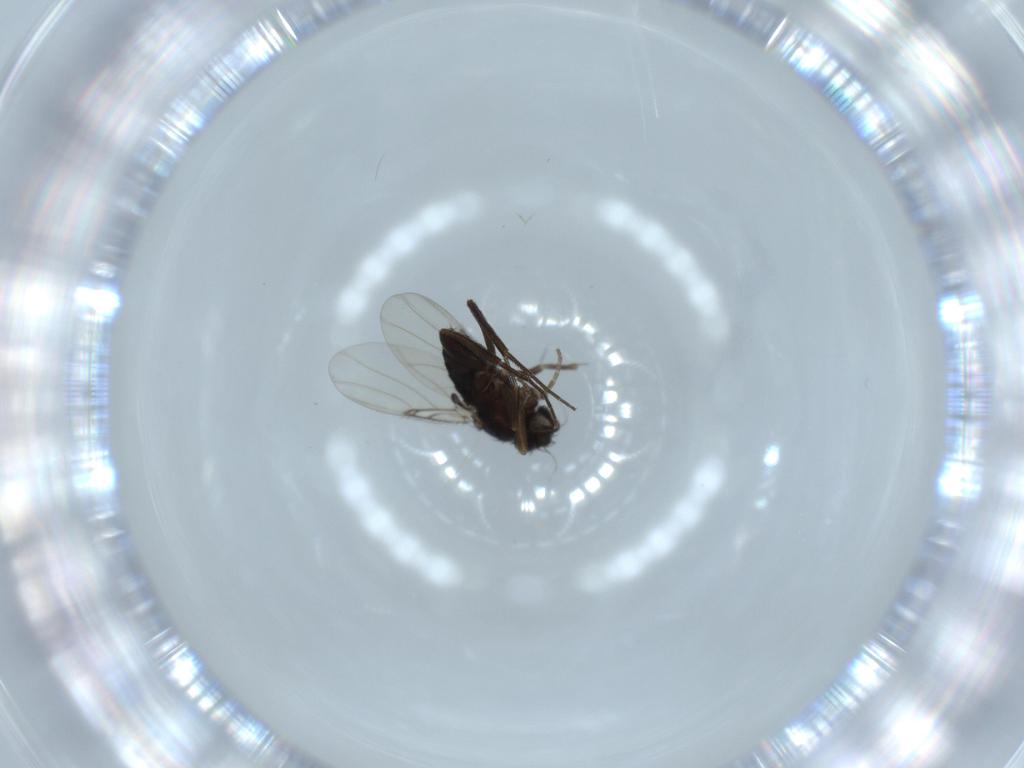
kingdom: Animalia
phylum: Arthropoda
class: Insecta
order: Diptera
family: Phoridae
